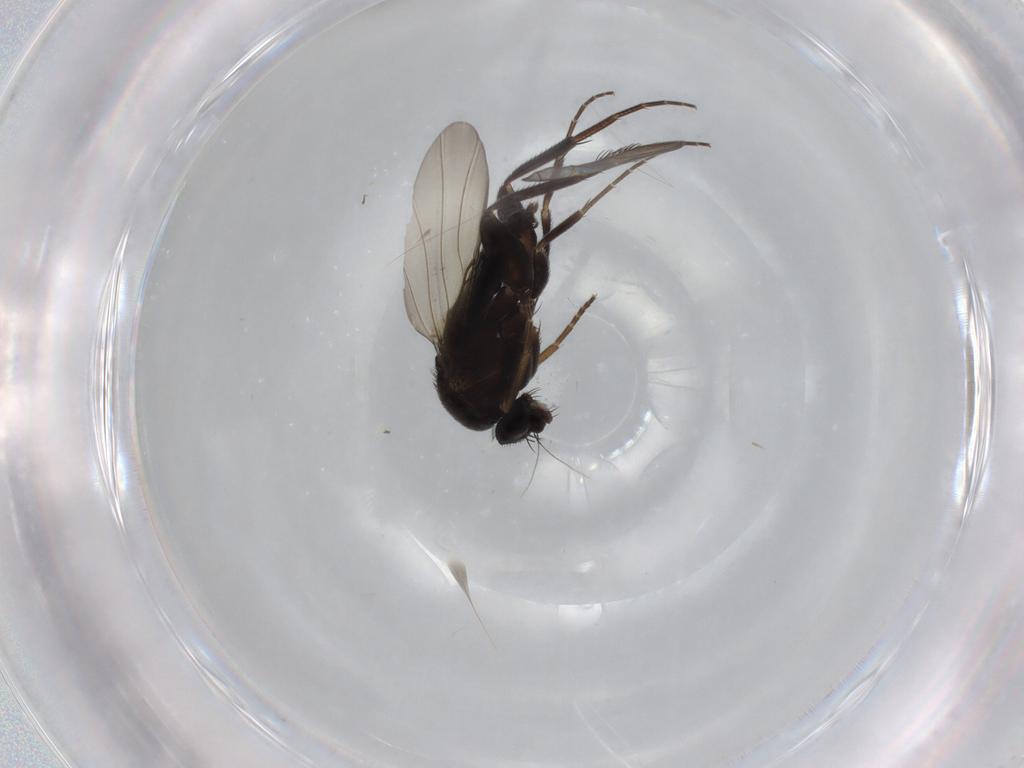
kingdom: Animalia
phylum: Arthropoda
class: Insecta
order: Diptera
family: Phoridae
